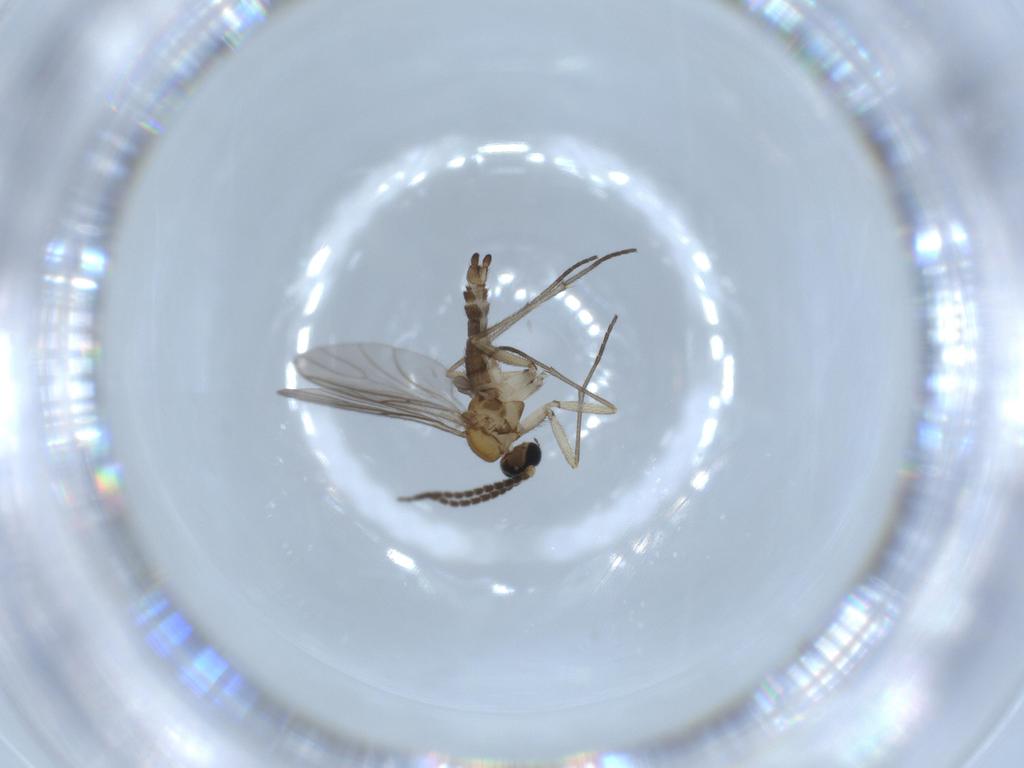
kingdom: Animalia
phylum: Arthropoda
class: Insecta
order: Diptera
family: Sciaridae
